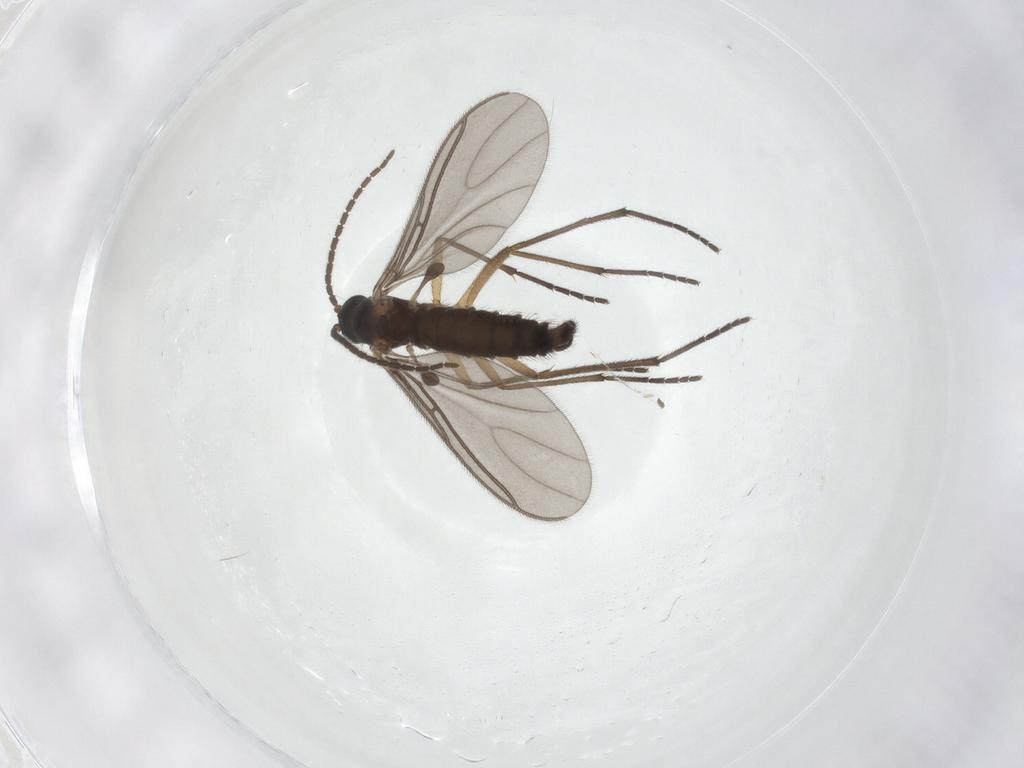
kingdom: Animalia
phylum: Arthropoda
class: Insecta
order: Diptera
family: Sciaridae
